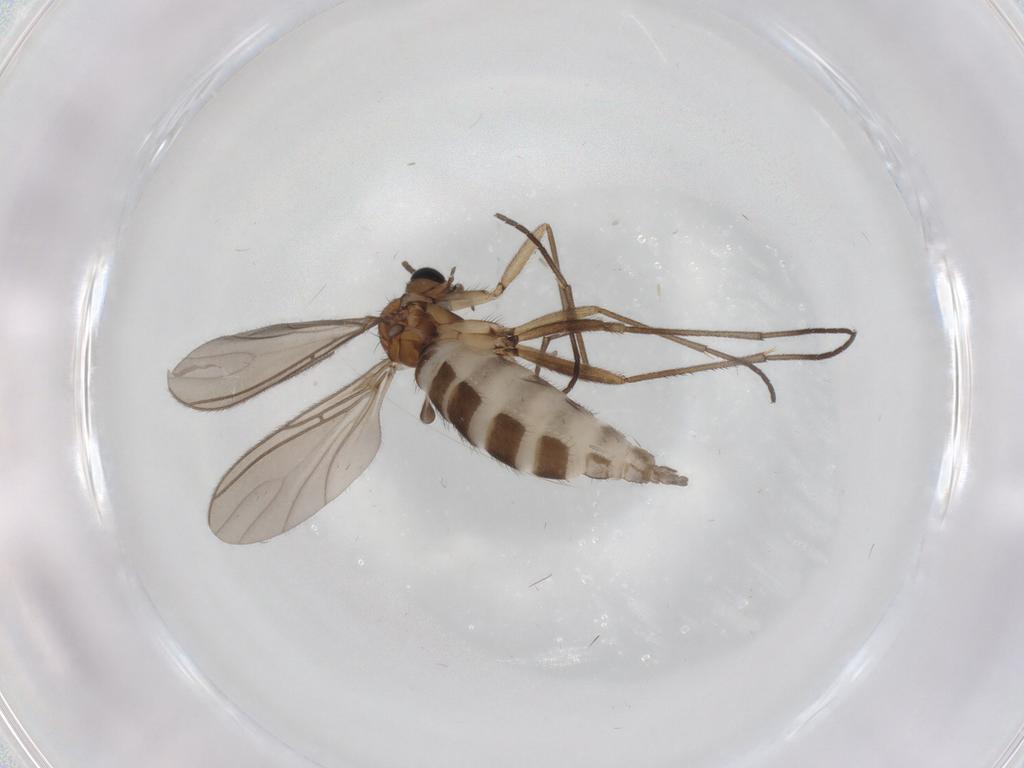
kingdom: Animalia
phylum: Arthropoda
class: Insecta
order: Diptera
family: Sciaridae
